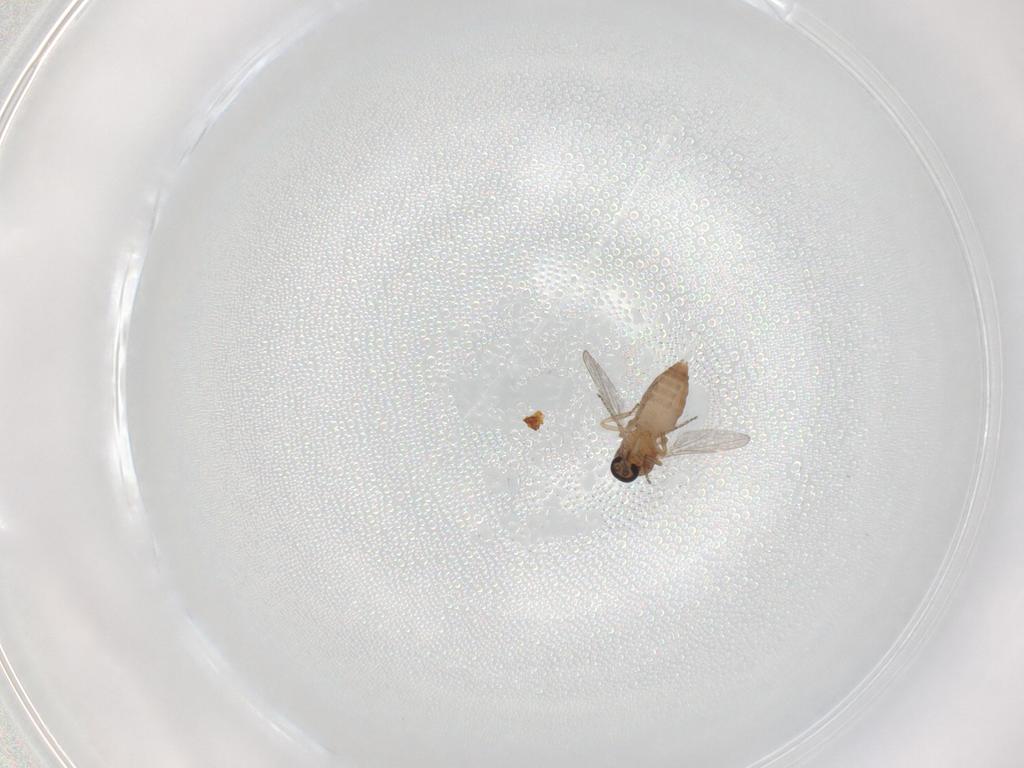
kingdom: Animalia
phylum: Arthropoda
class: Insecta
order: Diptera
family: Ceratopogonidae
